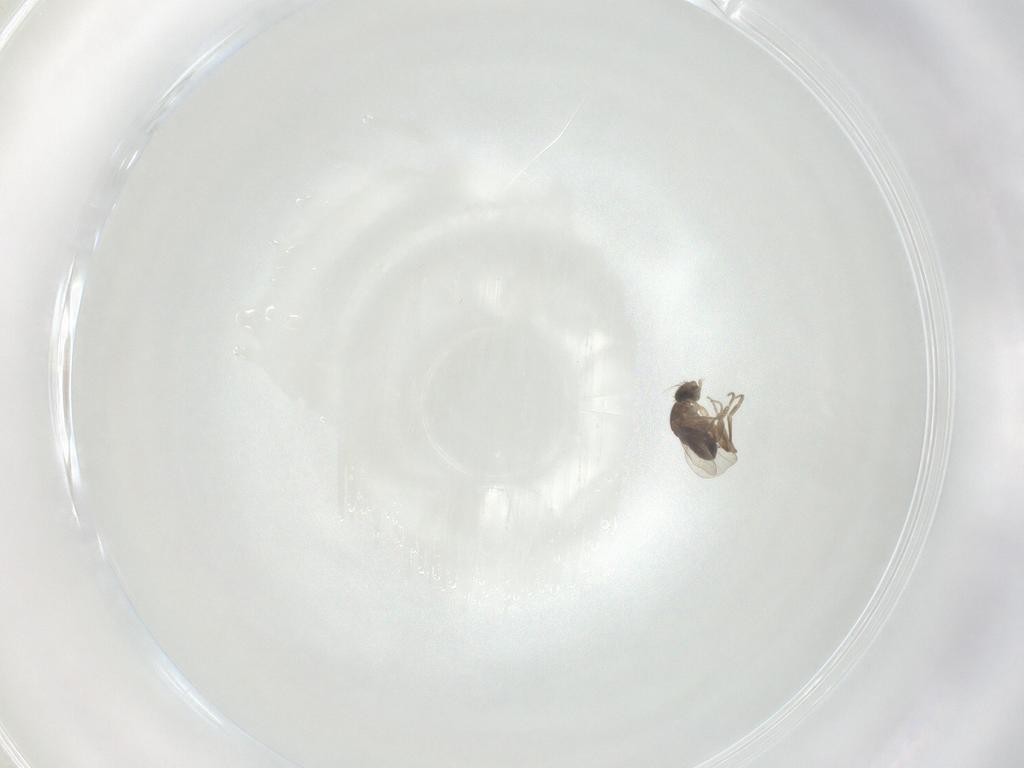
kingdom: Animalia
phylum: Arthropoda
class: Insecta
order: Diptera
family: Phoridae
